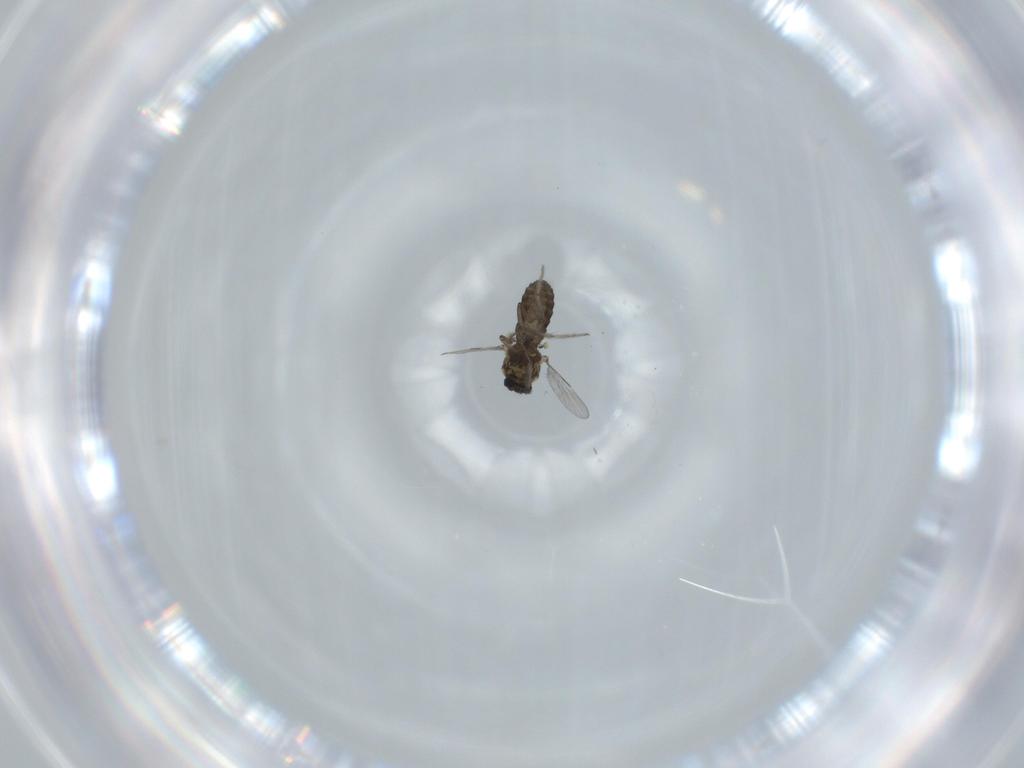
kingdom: Animalia
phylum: Arthropoda
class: Insecta
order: Diptera
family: Ceratopogonidae
